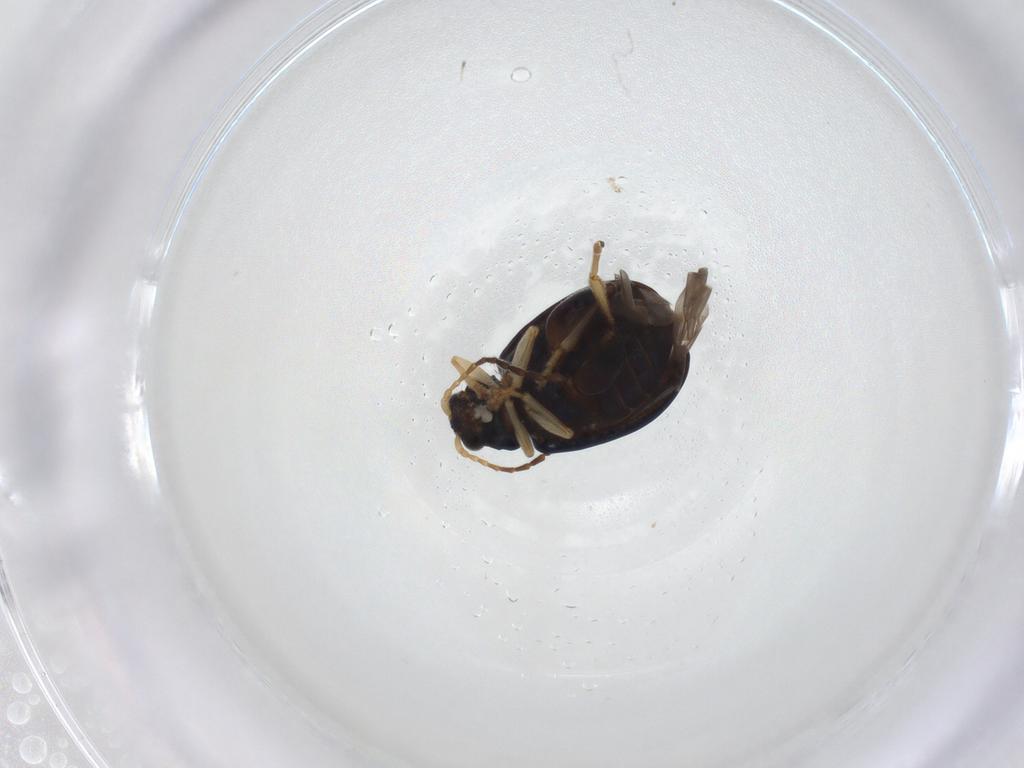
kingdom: Animalia
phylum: Arthropoda
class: Insecta
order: Coleoptera
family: Chrysomelidae
